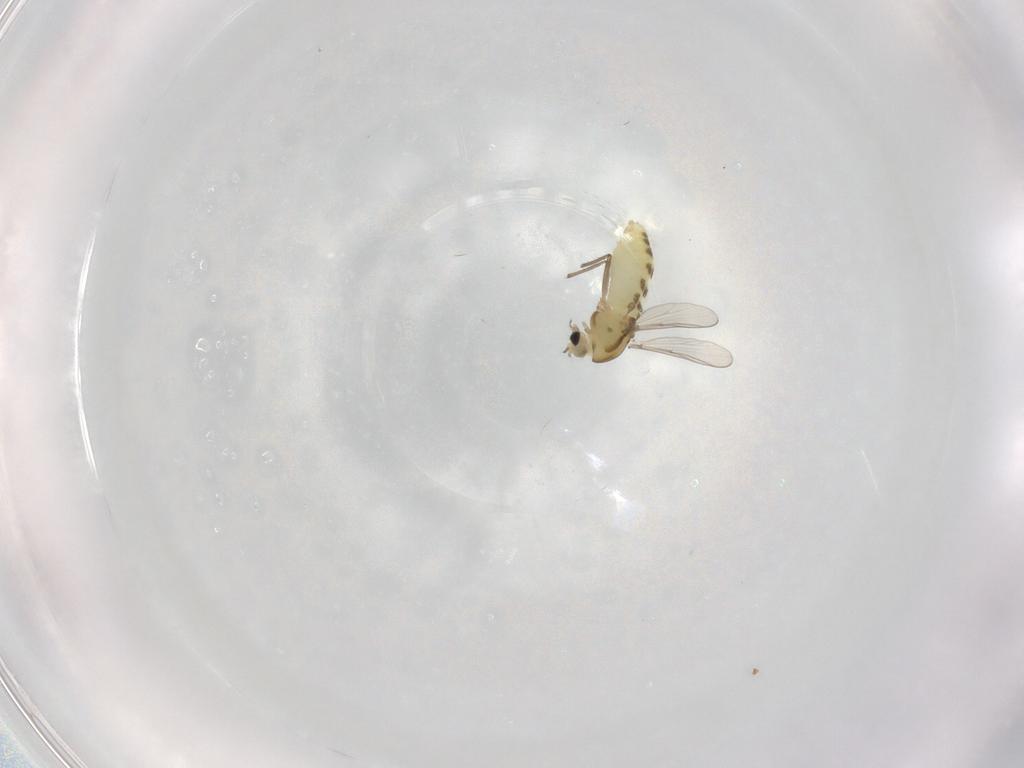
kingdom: Animalia
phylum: Arthropoda
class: Insecta
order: Diptera
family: Chironomidae
